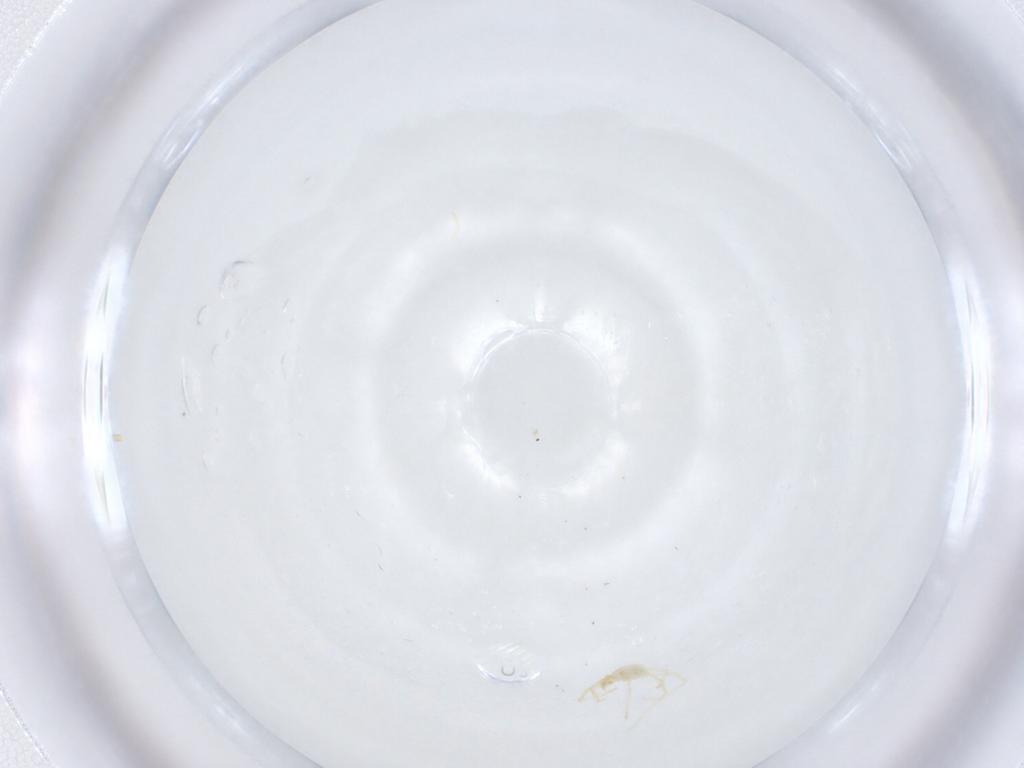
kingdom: Animalia
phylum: Arthropoda
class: Arachnida
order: Trombidiformes
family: Erythraeidae
